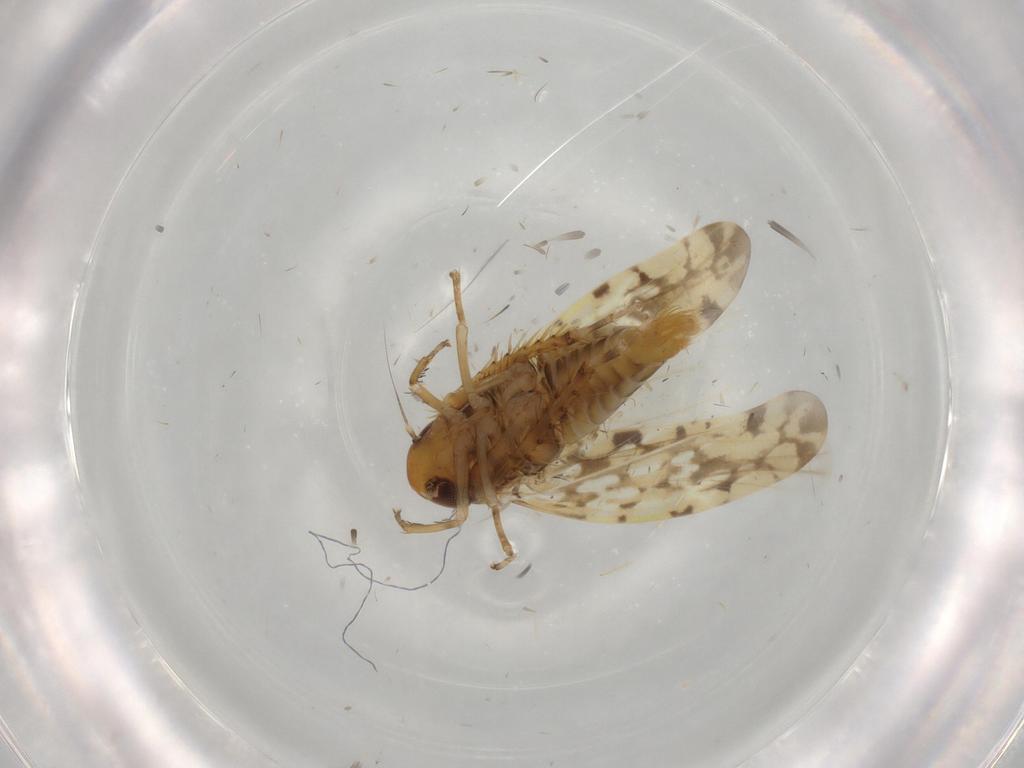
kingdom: Animalia
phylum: Arthropoda
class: Insecta
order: Hemiptera
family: Cicadellidae
